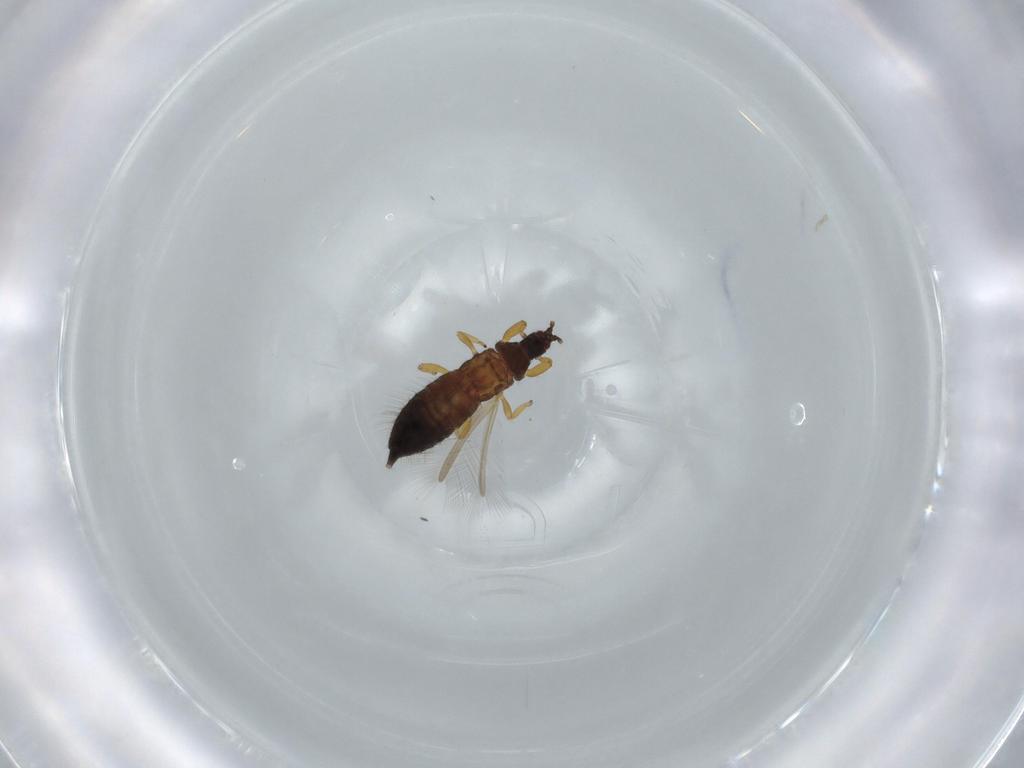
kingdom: Animalia
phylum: Arthropoda
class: Insecta
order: Thysanoptera
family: Phlaeothripidae
